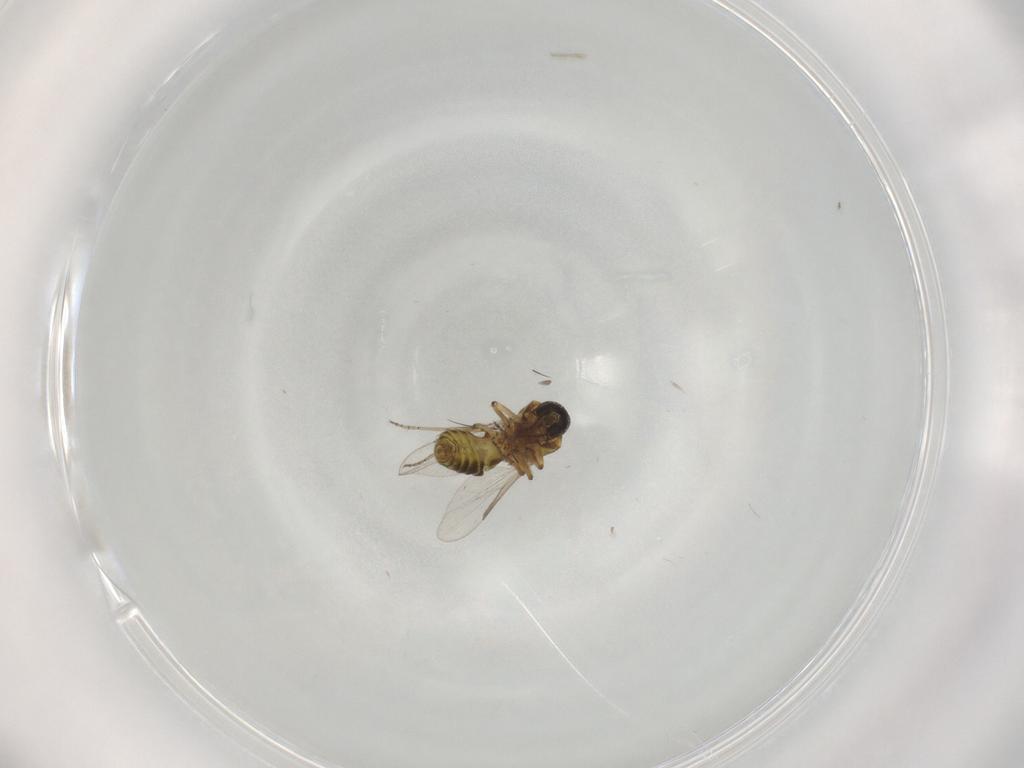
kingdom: Animalia
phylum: Arthropoda
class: Insecta
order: Diptera
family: Ceratopogonidae
